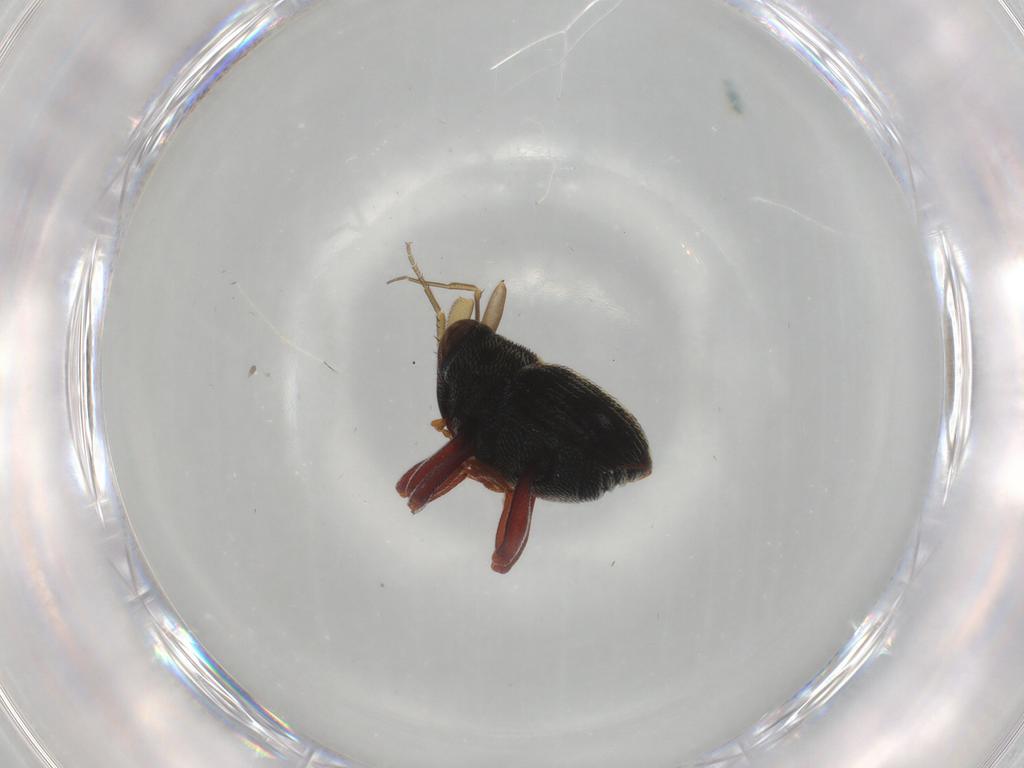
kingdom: Animalia
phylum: Arthropoda
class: Insecta
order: Coleoptera
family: Curculionidae
